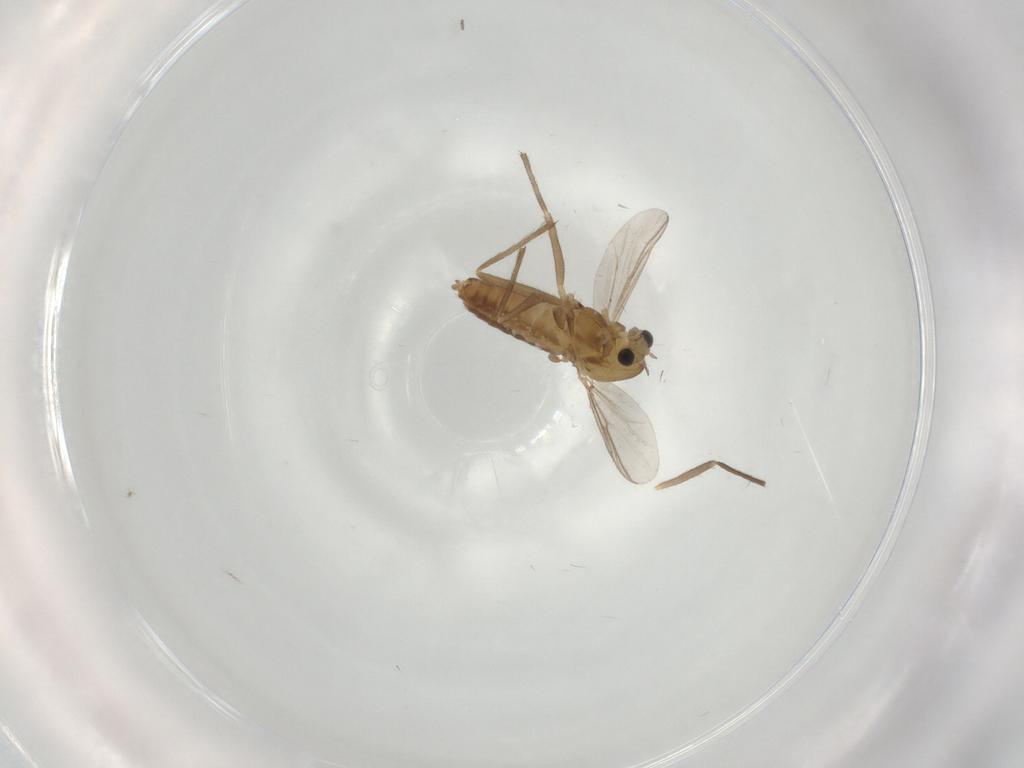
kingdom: Animalia
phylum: Arthropoda
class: Insecta
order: Diptera
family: Chironomidae
